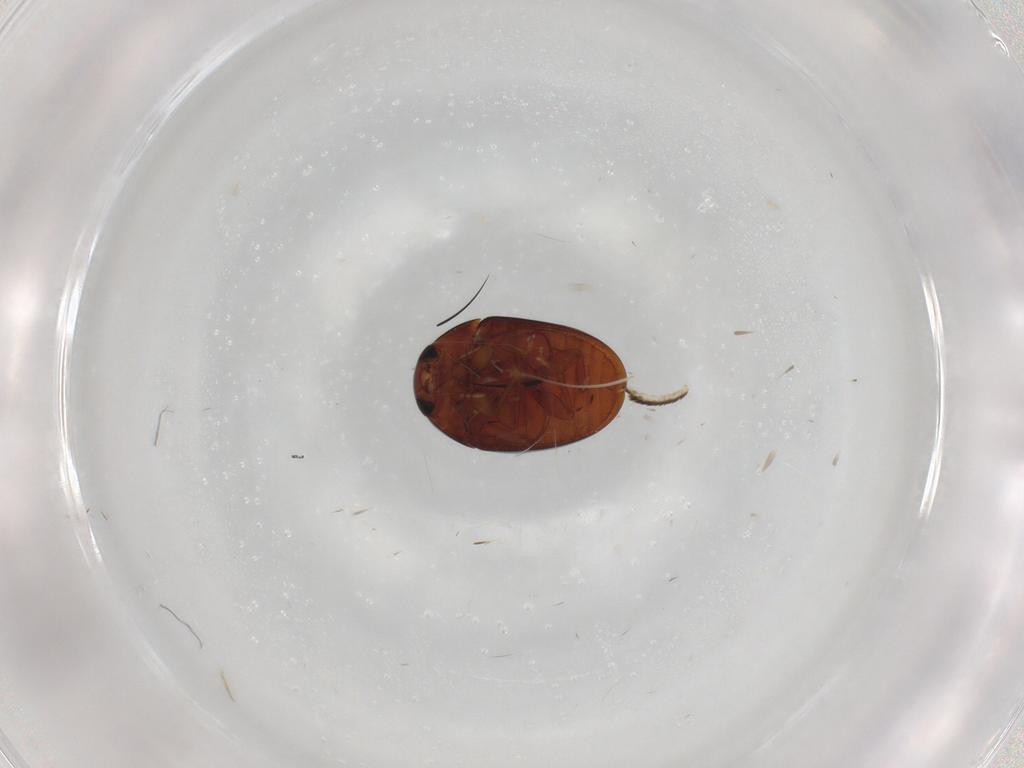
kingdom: Animalia
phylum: Arthropoda
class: Insecta
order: Coleoptera
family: Phalacridae
